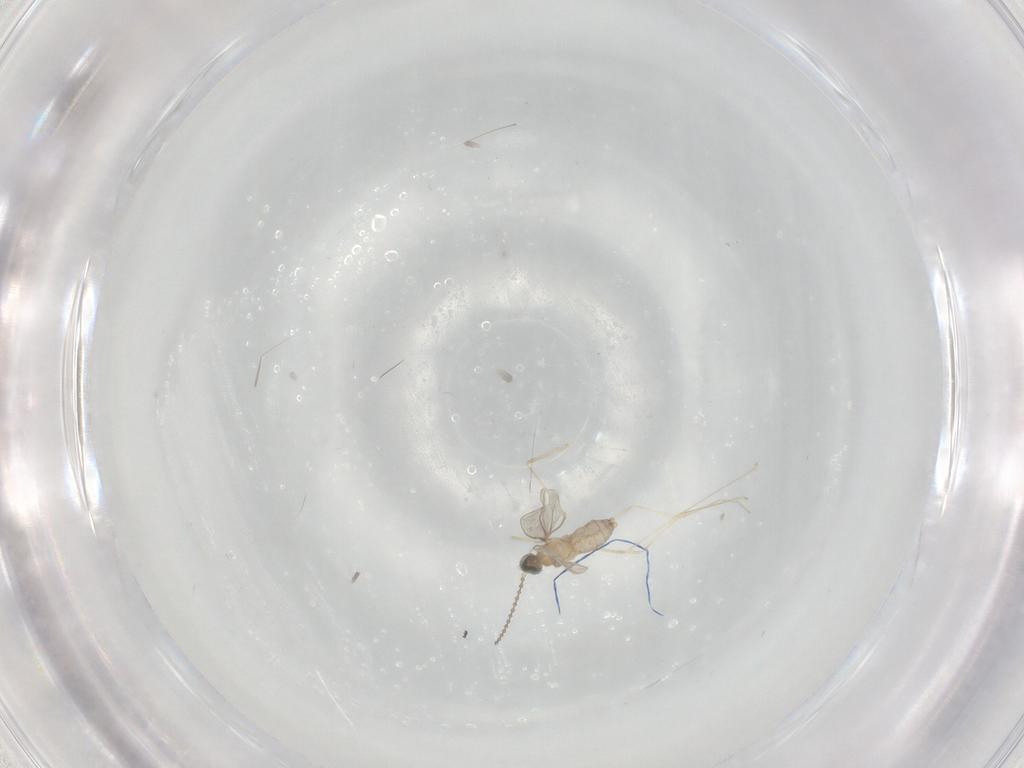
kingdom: Animalia
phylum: Arthropoda
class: Insecta
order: Diptera
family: Cecidomyiidae
